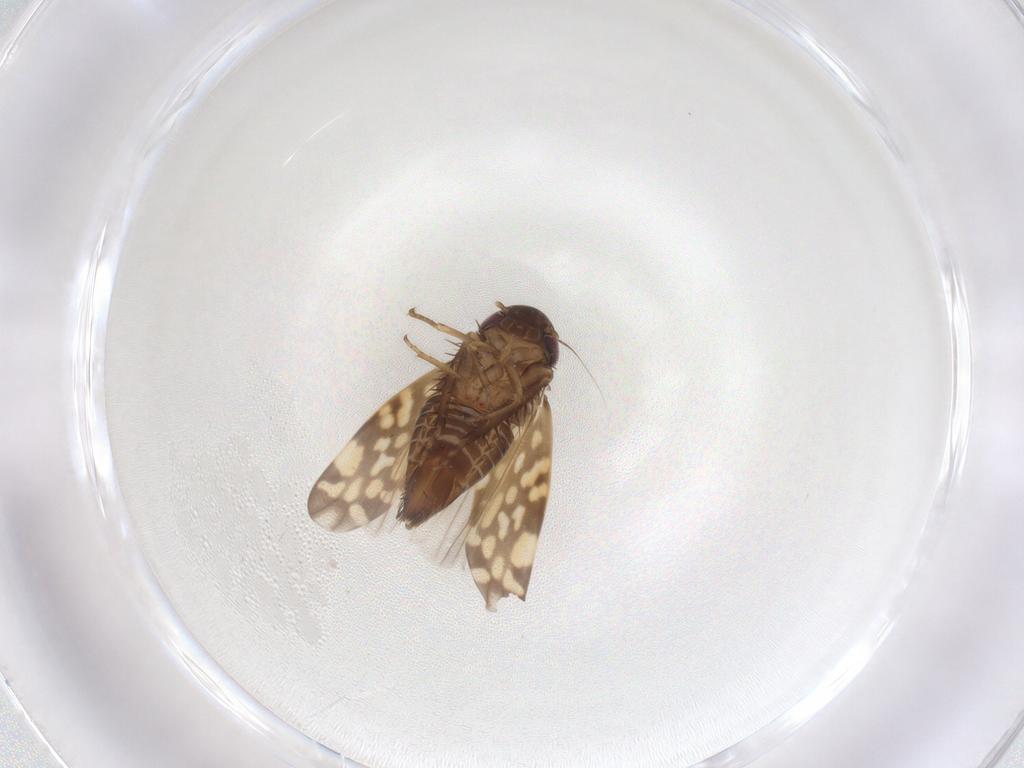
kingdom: Animalia
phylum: Arthropoda
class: Insecta
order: Hemiptera
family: Cicadellidae
